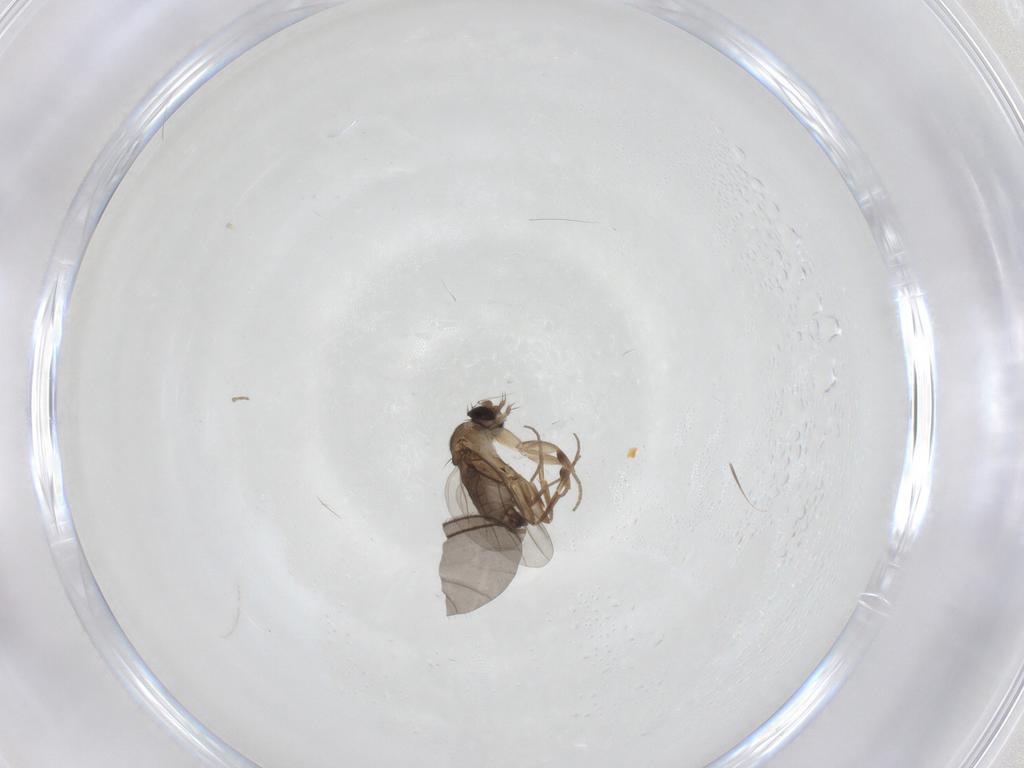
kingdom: Animalia
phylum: Arthropoda
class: Insecta
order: Diptera
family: Phoridae
